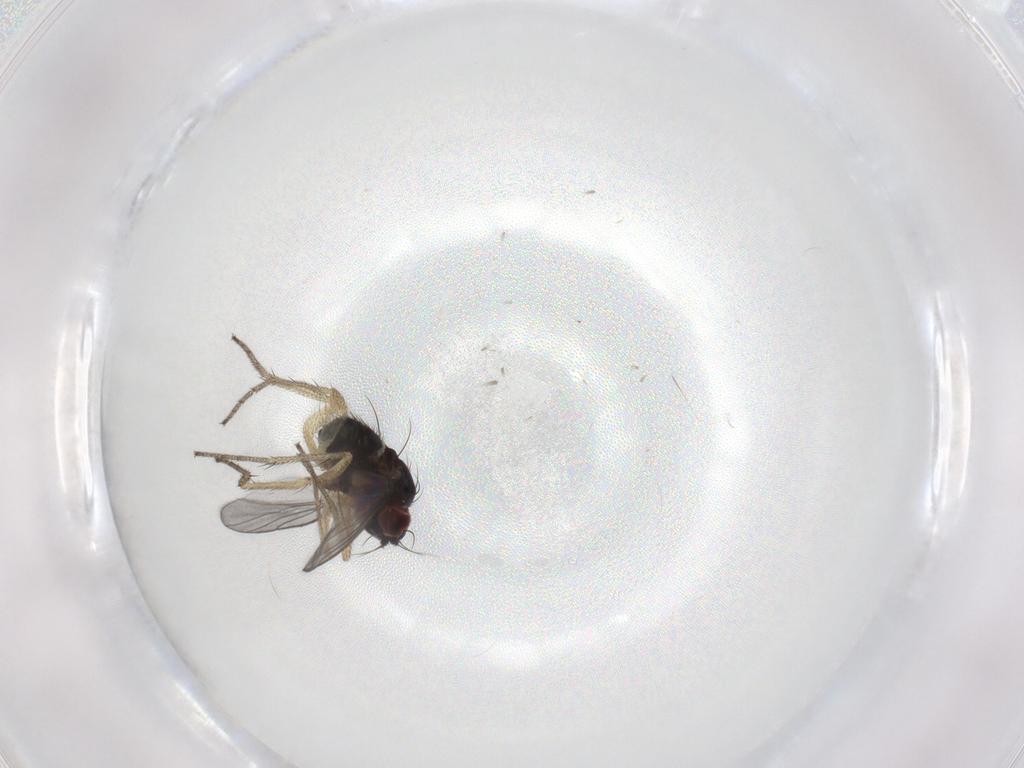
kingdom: Animalia
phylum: Arthropoda
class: Insecta
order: Diptera
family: Chironomidae
